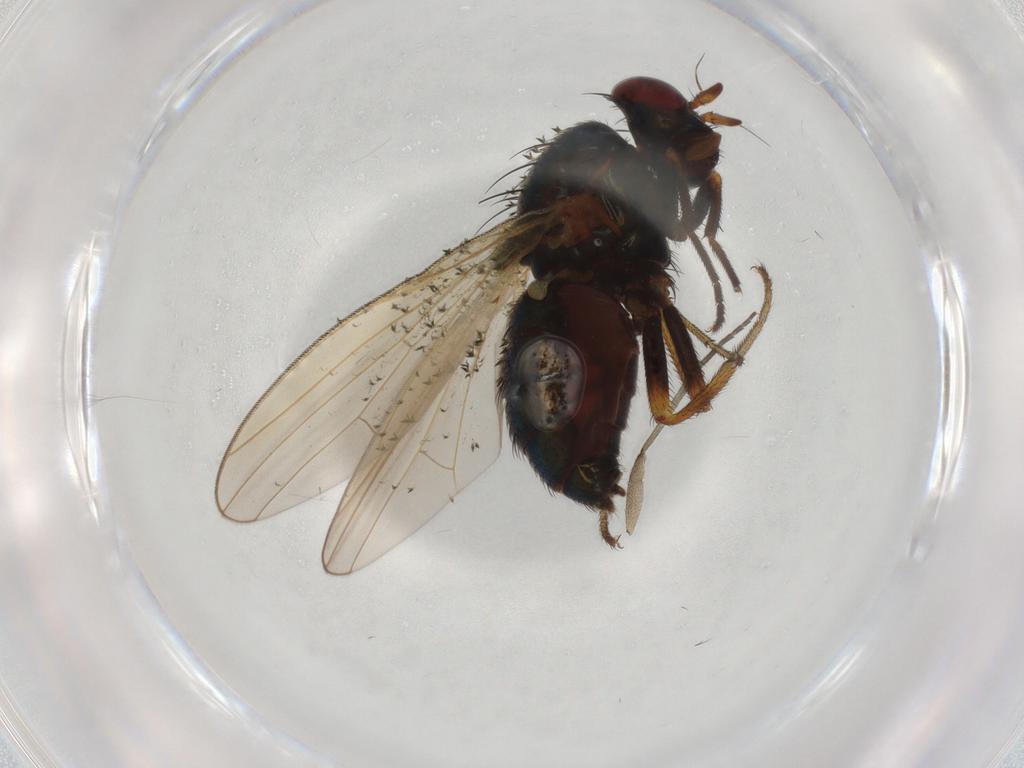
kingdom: Animalia
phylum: Arthropoda
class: Insecta
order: Diptera
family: Lauxaniidae
